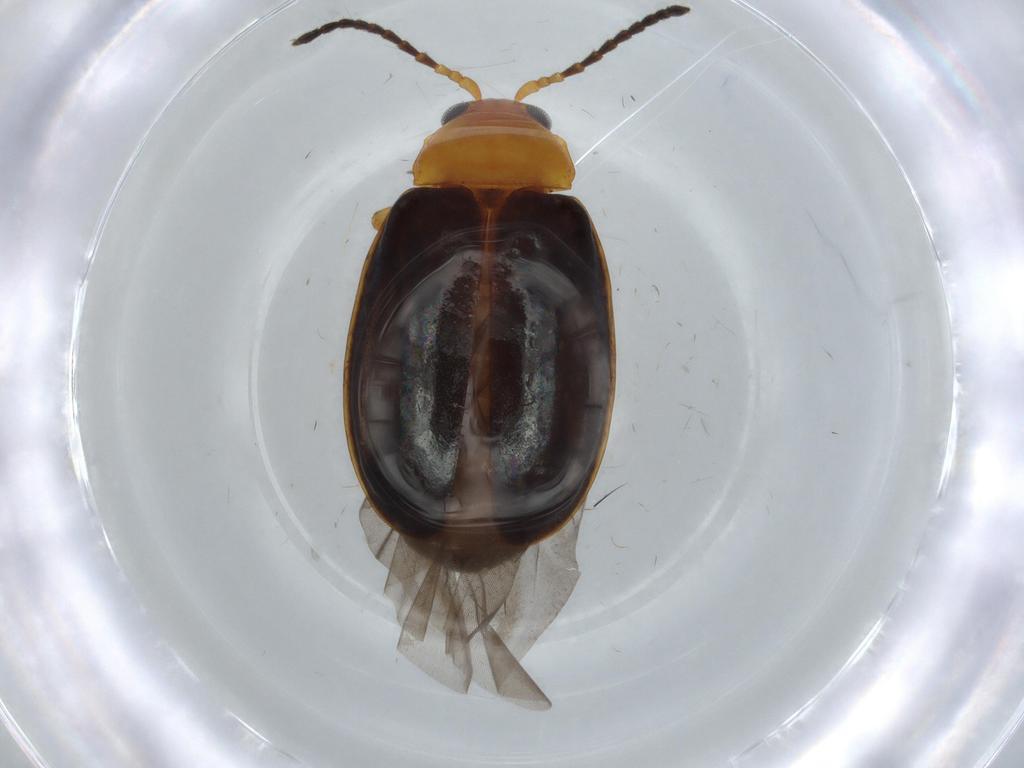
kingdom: Animalia
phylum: Arthropoda
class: Insecta
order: Coleoptera
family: Chrysomelidae
